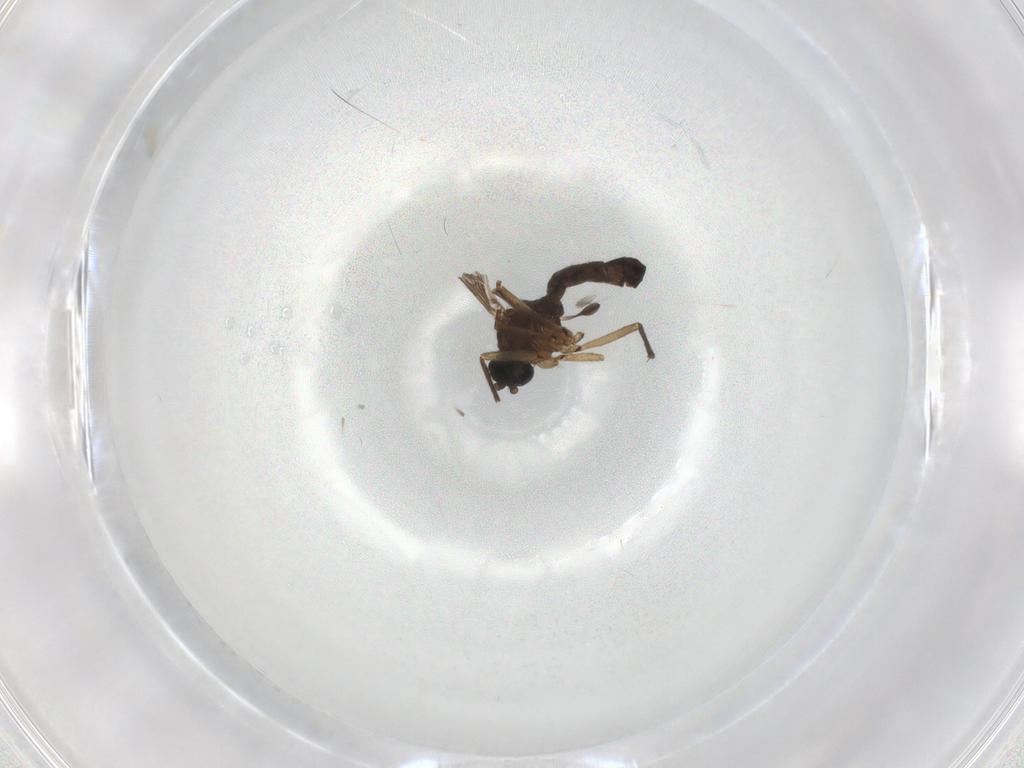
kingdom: Animalia
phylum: Arthropoda
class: Insecta
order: Diptera
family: Sciaridae
